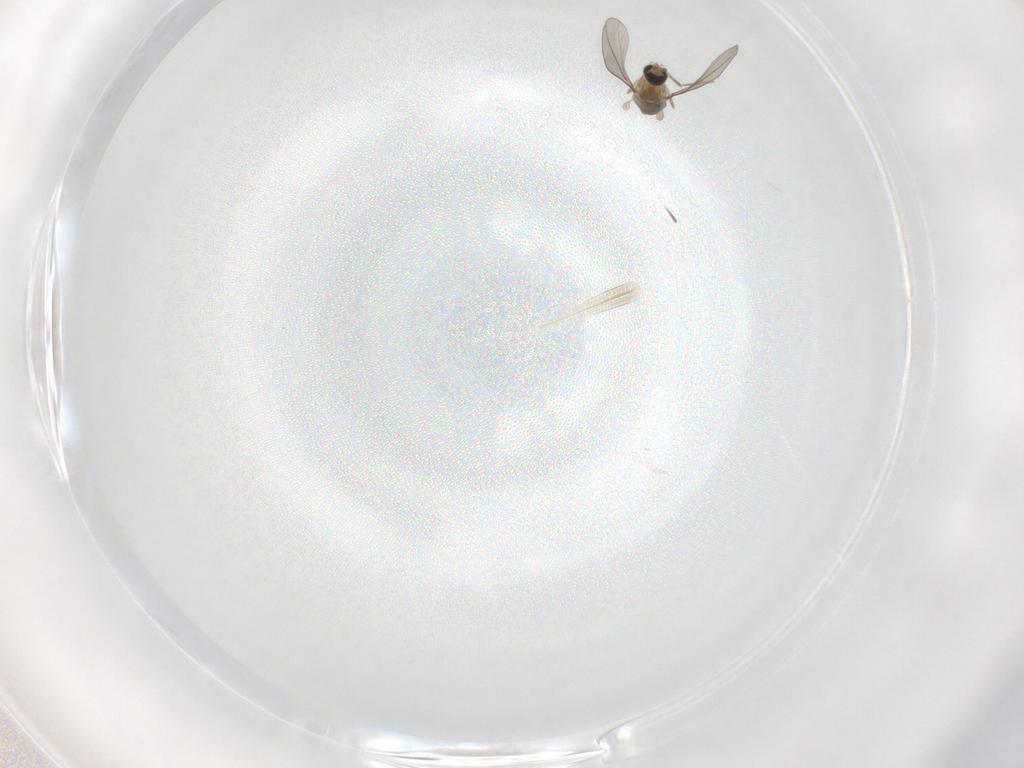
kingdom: Animalia
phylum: Arthropoda
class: Insecta
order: Diptera
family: Cecidomyiidae
